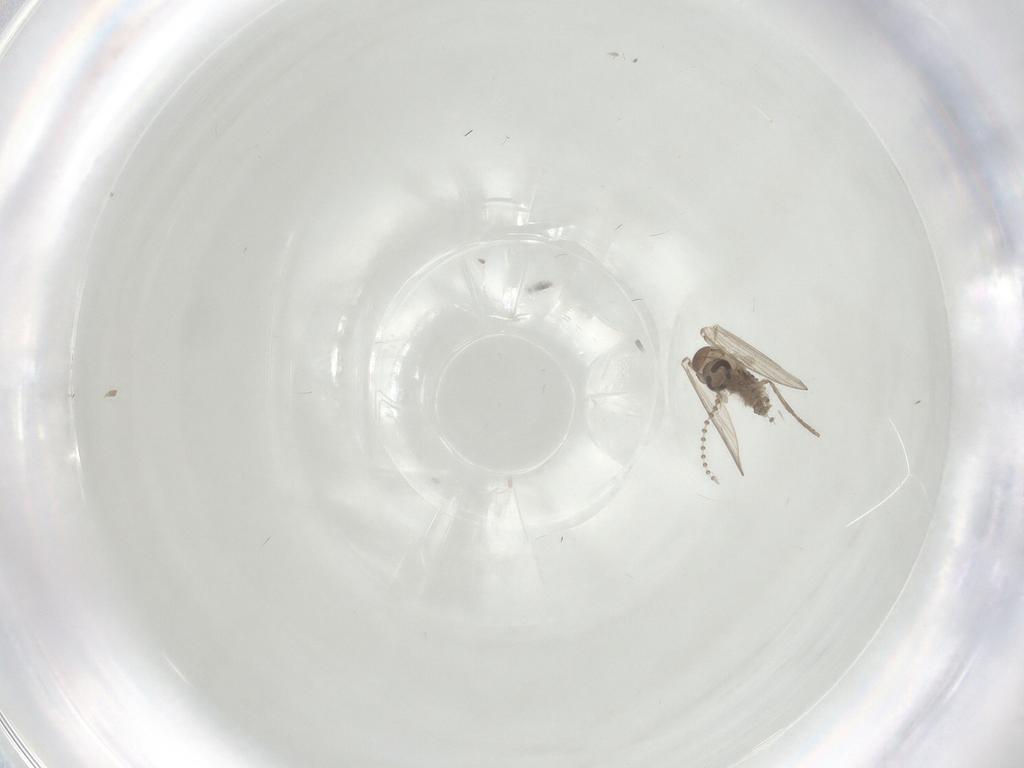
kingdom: Animalia
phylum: Arthropoda
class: Insecta
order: Diptera
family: Psychodidae
